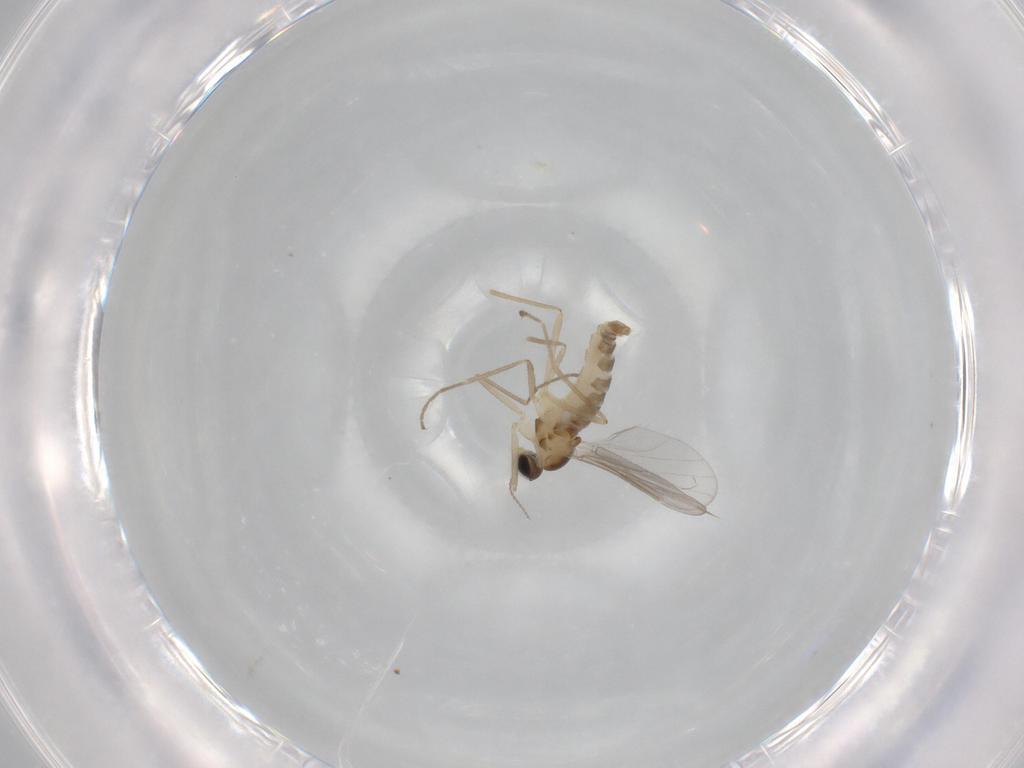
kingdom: Animalia
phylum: Arthropoda
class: Insecta
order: Diptera
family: Cecidomyiidae
